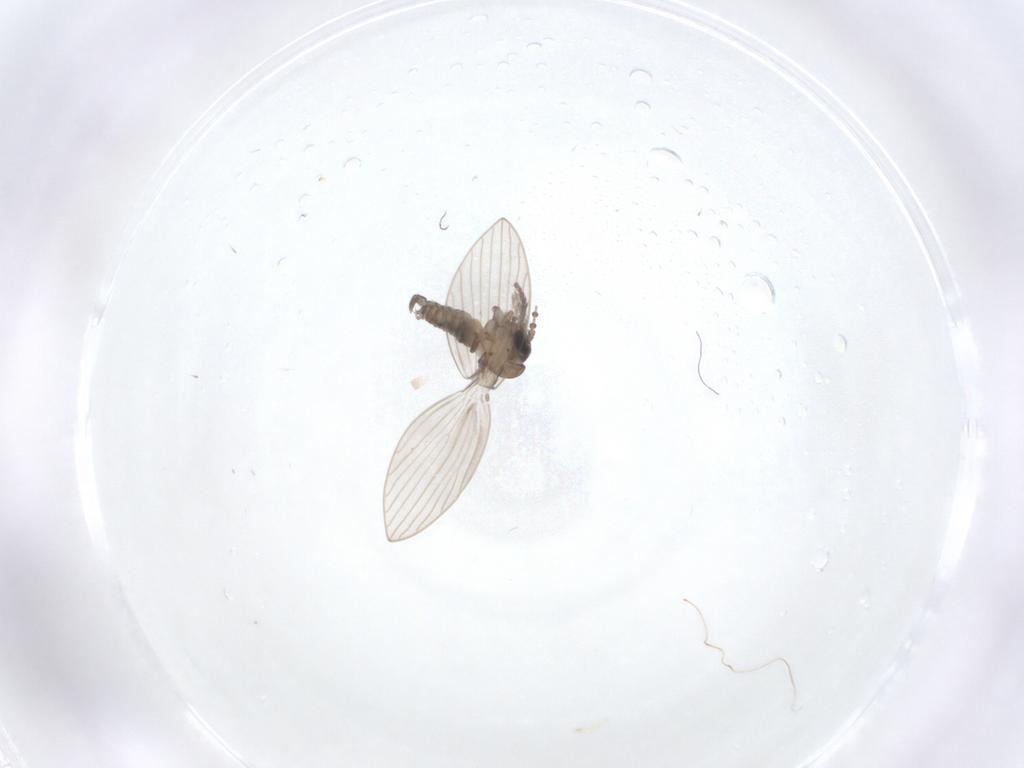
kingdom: Animalia
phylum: Arthropoda
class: Insecta
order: Diptera
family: Psychodidae
